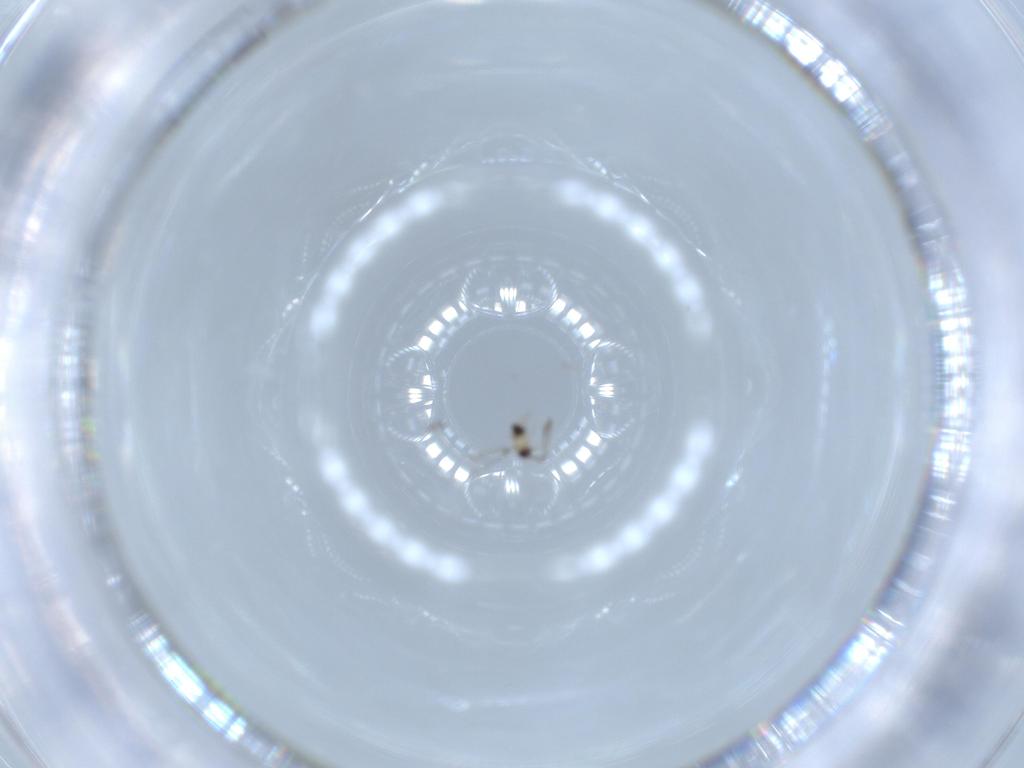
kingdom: Animalia
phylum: Arthropoda
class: Insecta
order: Hymenoptera
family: Mymaridae
